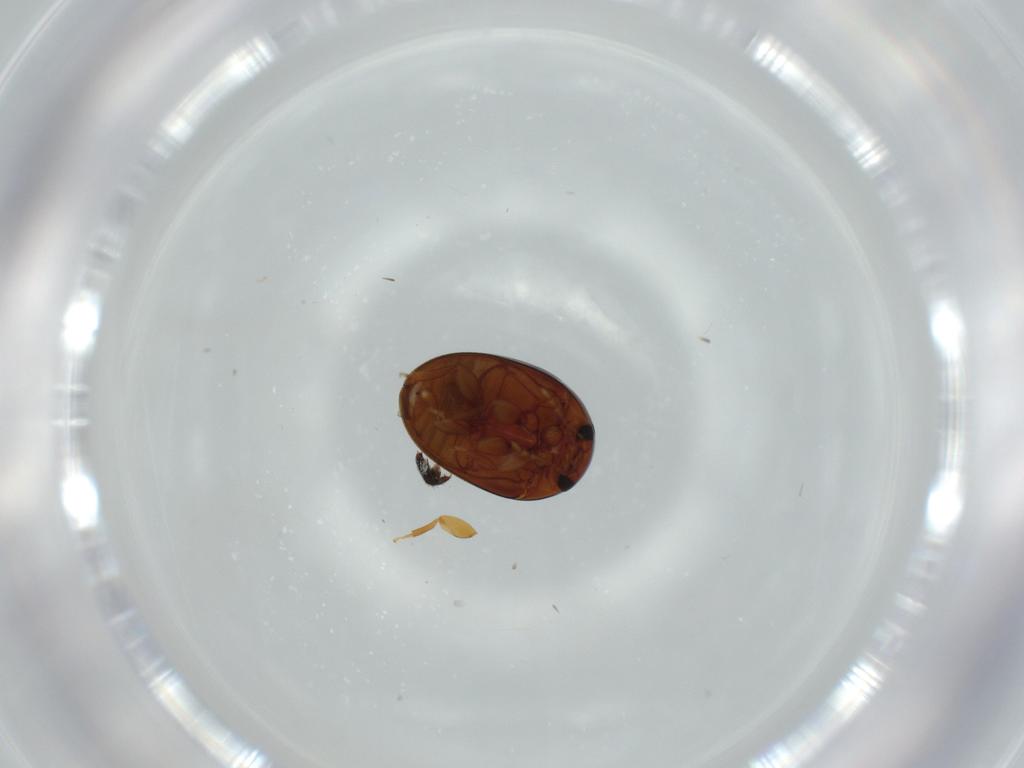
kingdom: Animalia
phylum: Arthropoda
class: Insecta
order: Coleoptera
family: Phalacridae
